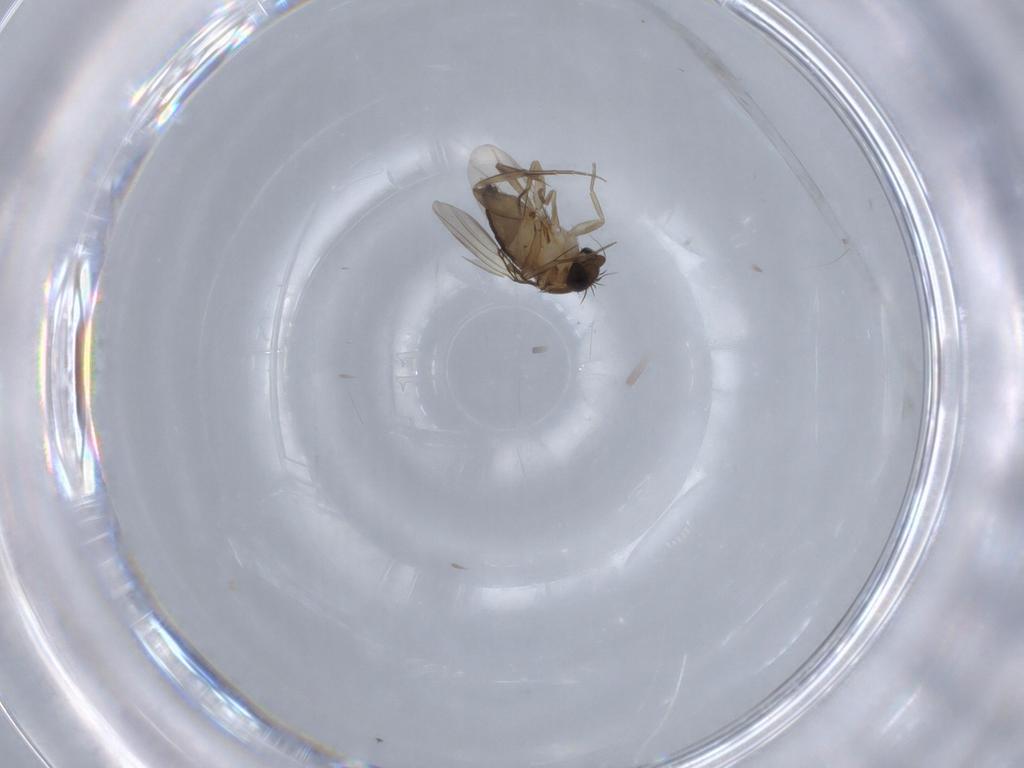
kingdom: Animalia
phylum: Arthropoda
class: Insecta
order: Diptera
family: Phoridae
